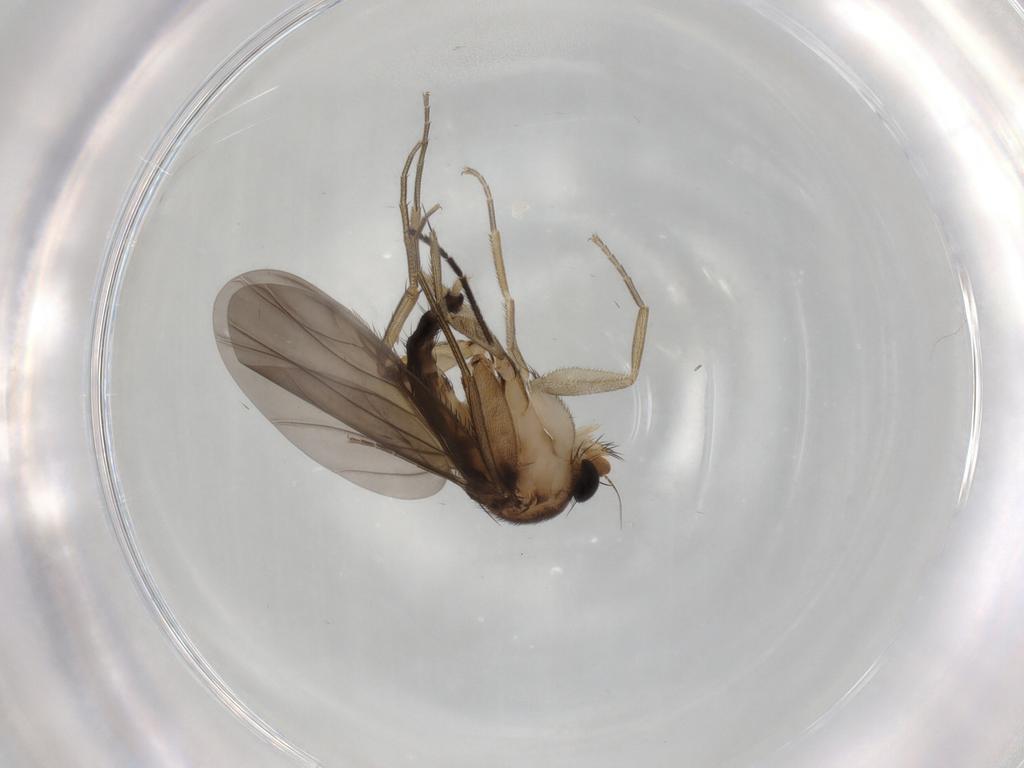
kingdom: Animalia
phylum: Arthropoda
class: Insecta
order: Diptera
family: Phoridae
